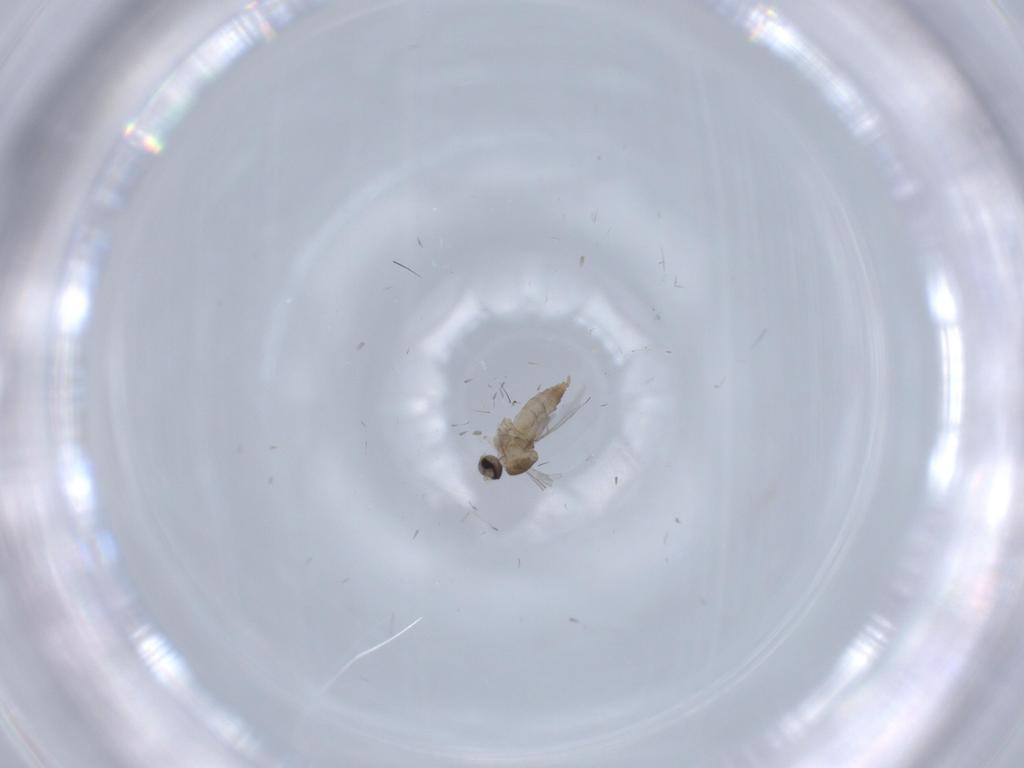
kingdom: Animalia
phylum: Arthropoda
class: Insecta
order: Diptera
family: Cecidomyiidae
